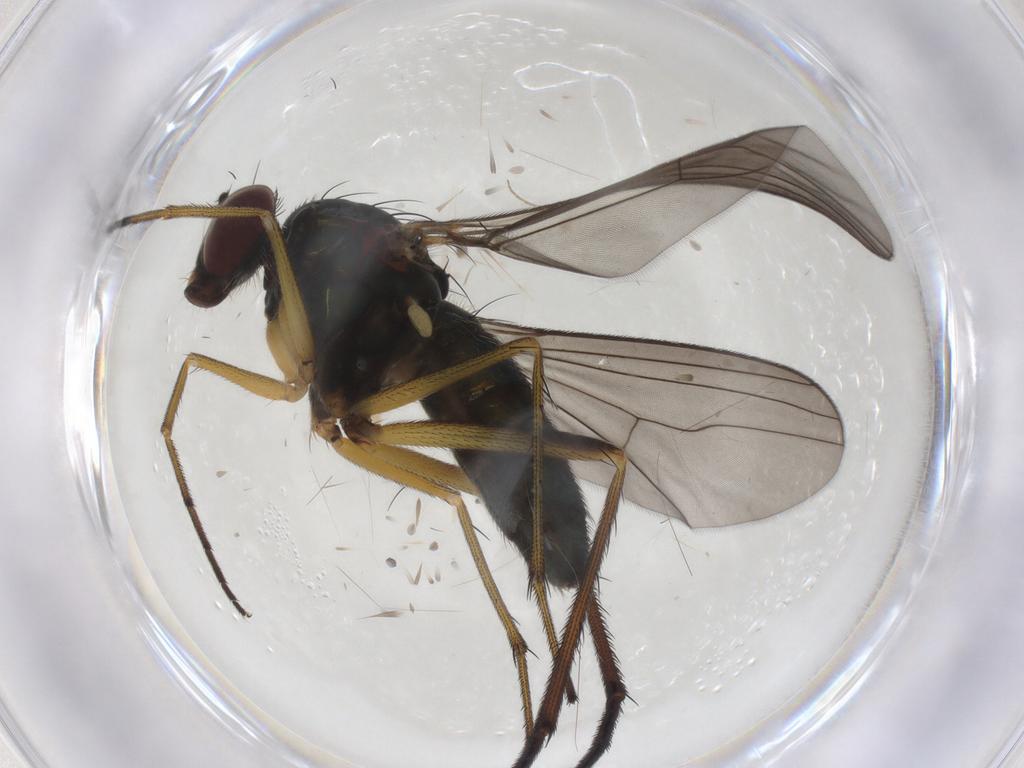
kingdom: Animalia
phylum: Arthropoda
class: Insecta
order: Diptera
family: Dolichopodidae
